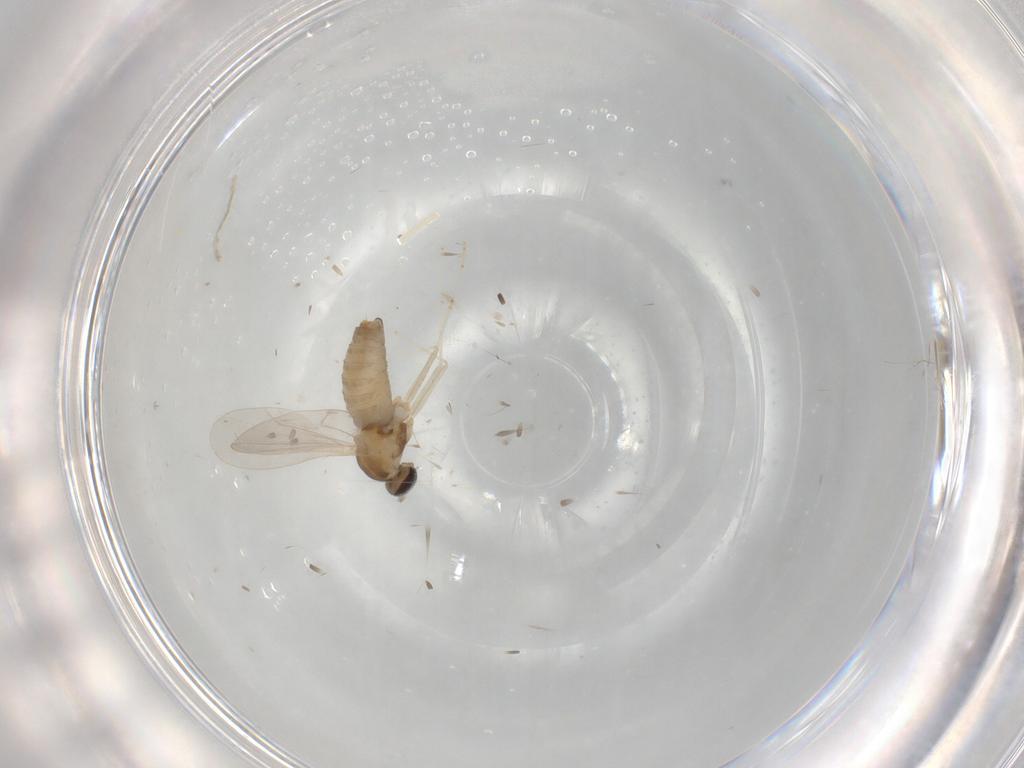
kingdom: Animalia
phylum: Arthropoda
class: Insecta
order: Diptera
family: Cecidomyiidae
